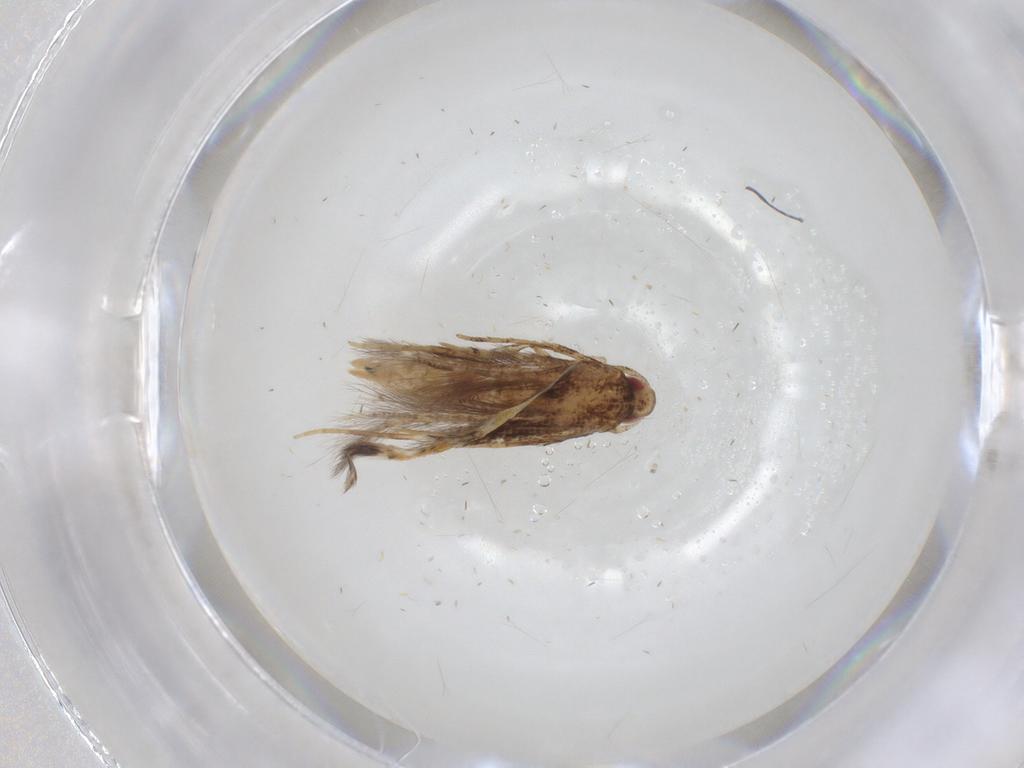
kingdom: Animalia
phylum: Arthropoda
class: Insecta
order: Lepidoptera
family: Cosmopterigidae
